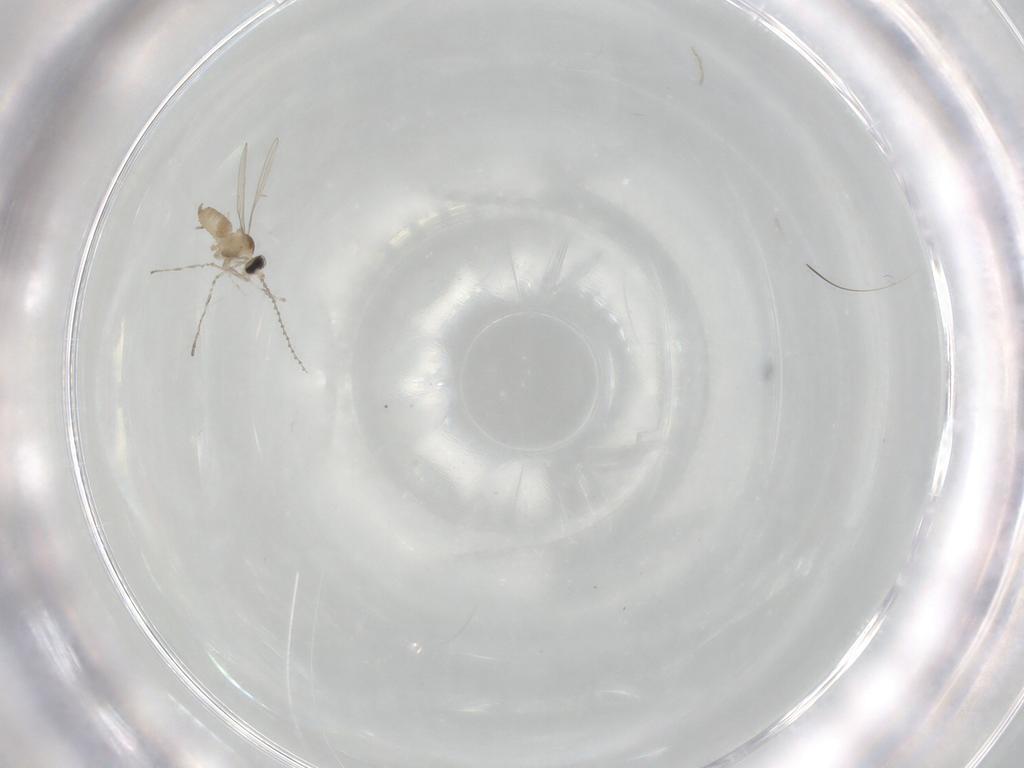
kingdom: Animalia
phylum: Arthropoda
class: Insecta
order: Diptera
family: Cecidomyiidae
